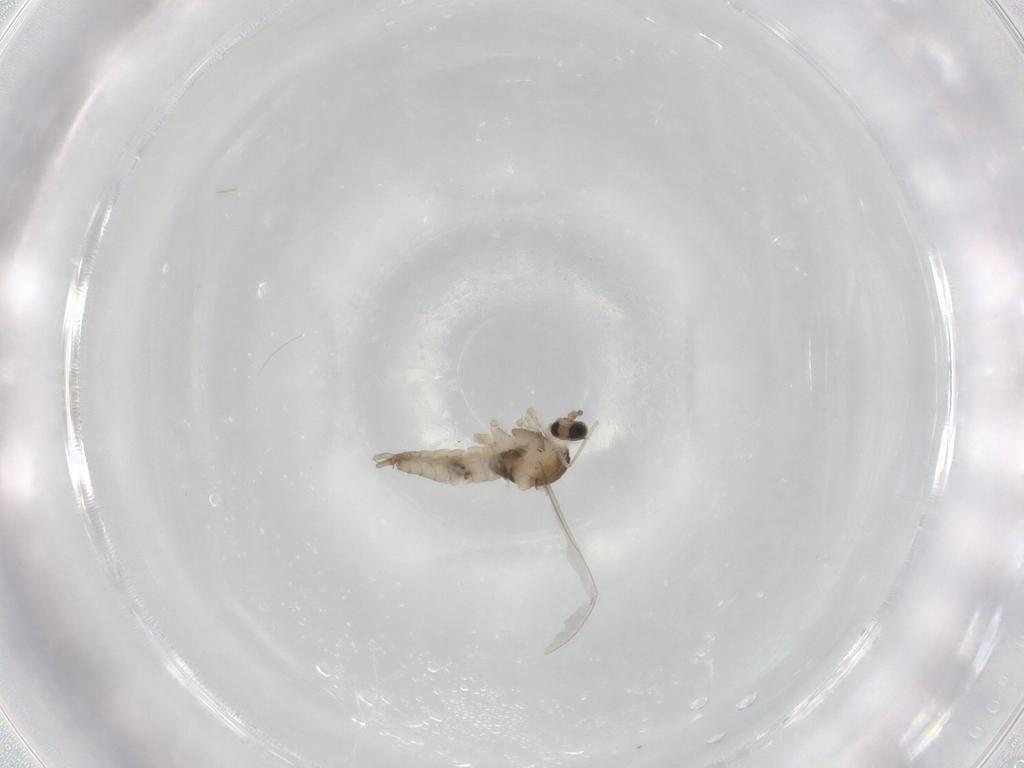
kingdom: Animalia
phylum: Arthropoda
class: Insecta
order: Diptera
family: Cecidomyiidae
